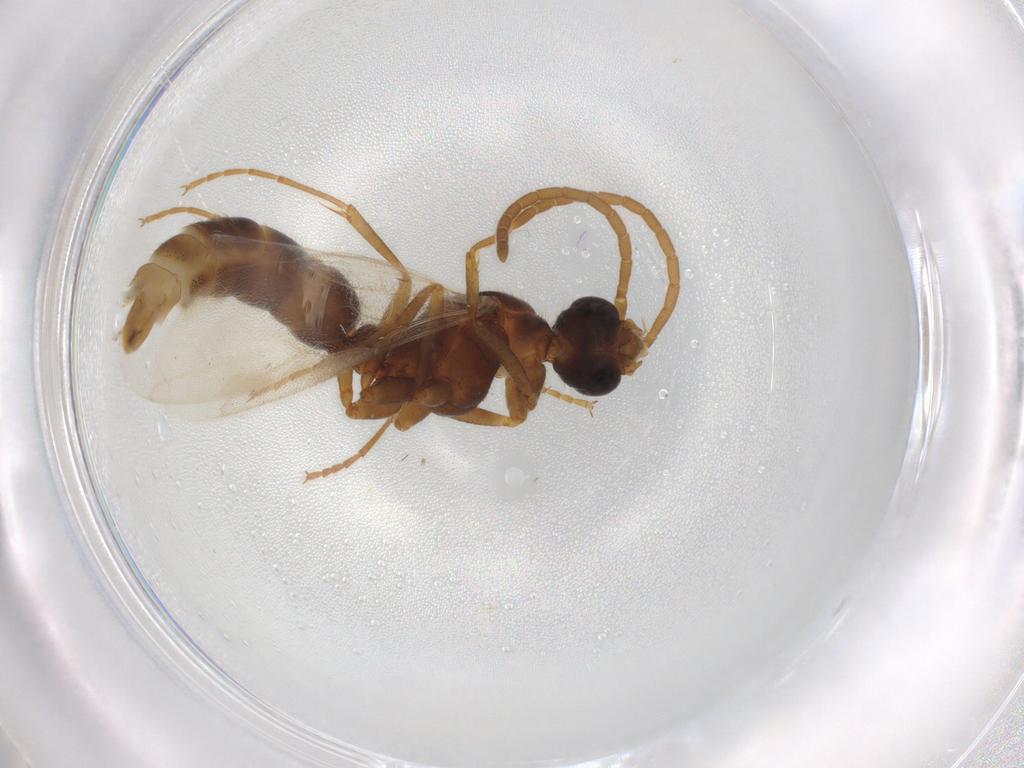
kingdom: Animalia
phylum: Arthropoda
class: Insecta
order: Hymenoptera
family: Formicidae
